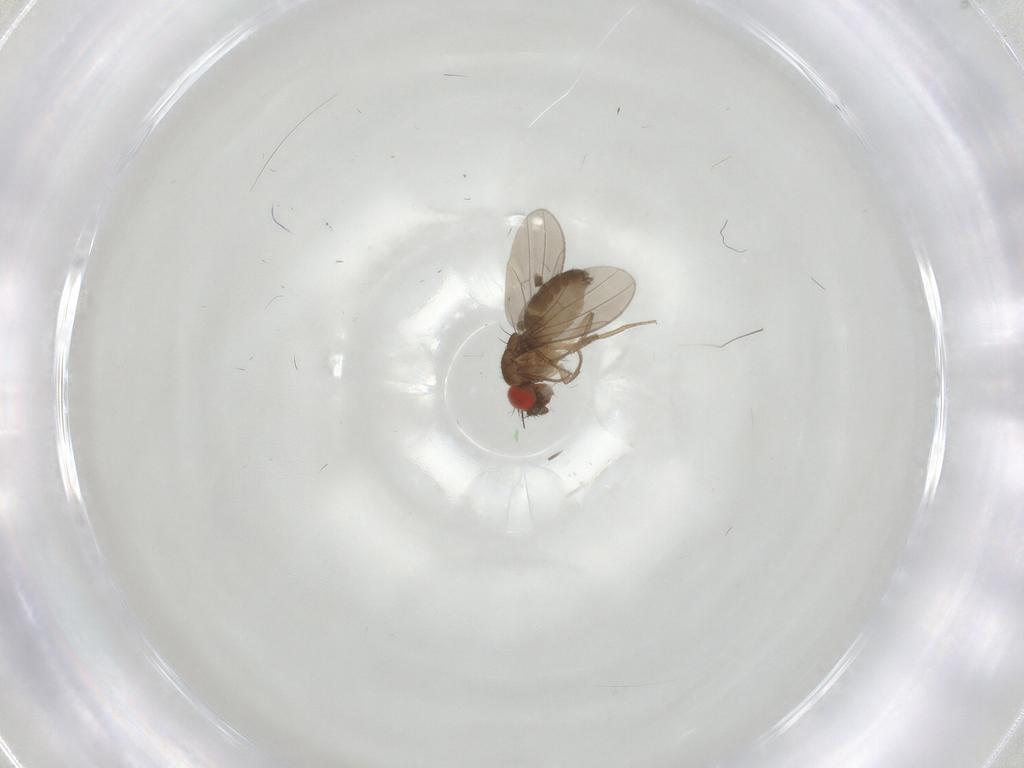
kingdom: Animalia
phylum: Arthropoda
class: Insecta
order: Diptera
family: Drosophilidae
